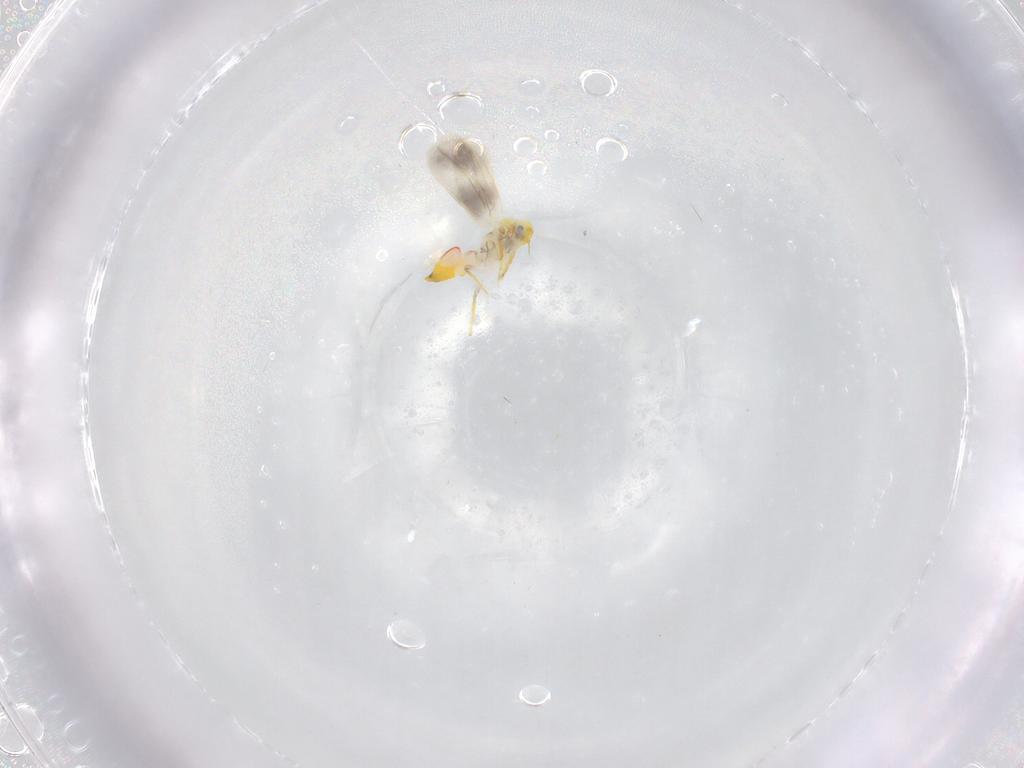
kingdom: Animalia
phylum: Arthropoda
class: Insecta
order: Hemiptera
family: Aleyrodidae
